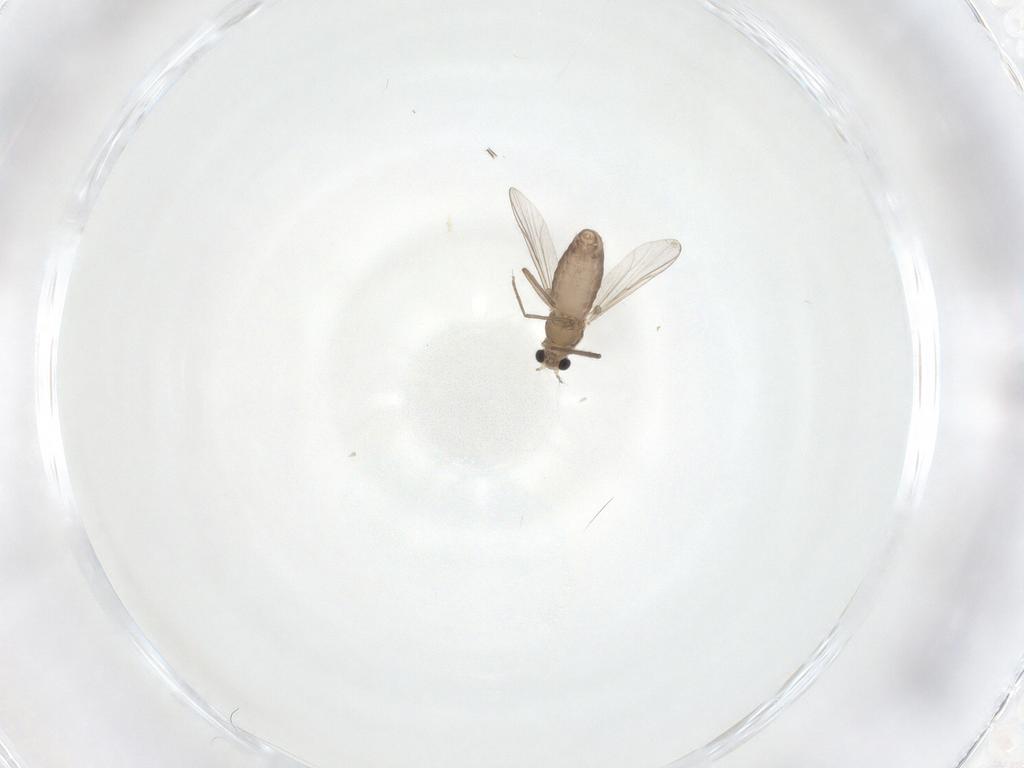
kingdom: Animalia
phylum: Arthropoda
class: Insecta
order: Diptera
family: Chironomidae
